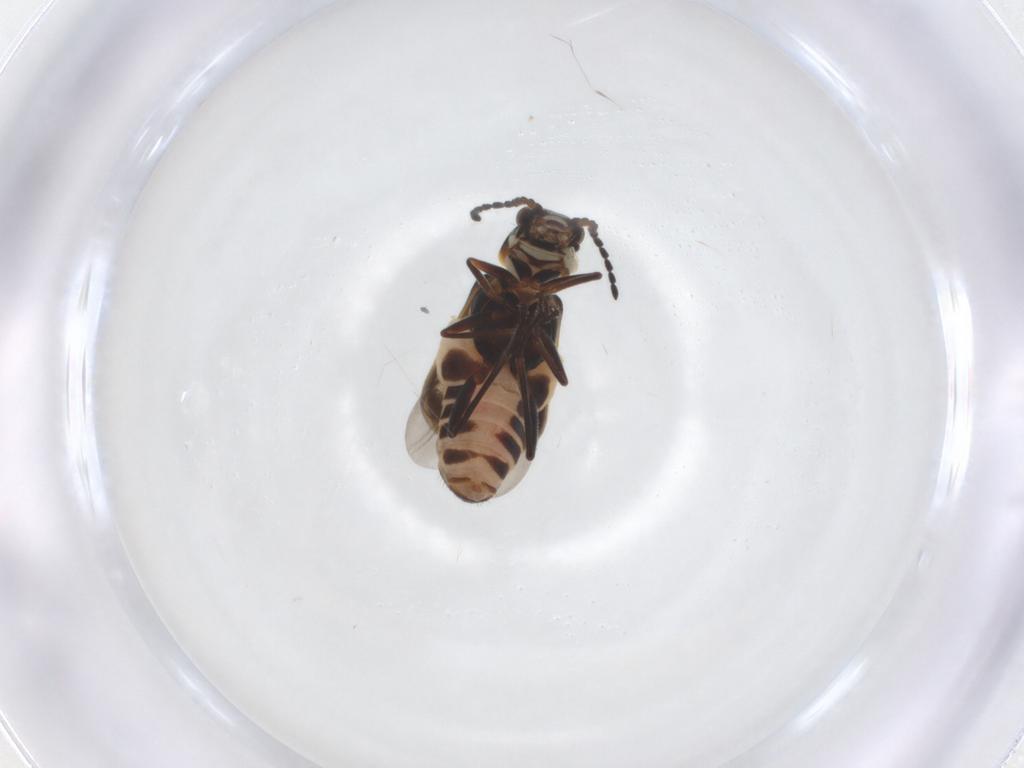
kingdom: Animalia
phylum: Arthropoda
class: Insecta
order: Coleoptera
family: Melyridae
